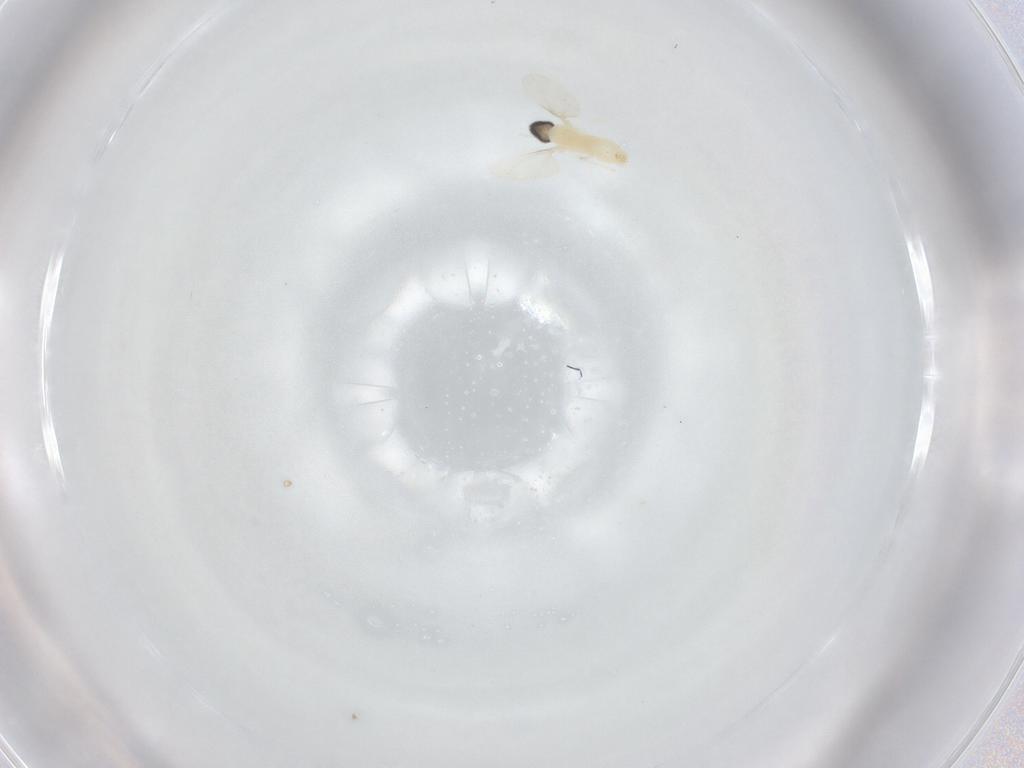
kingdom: Animalia
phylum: Arthropoda
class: Insecta
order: Diptera
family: Cecidomyiidae
